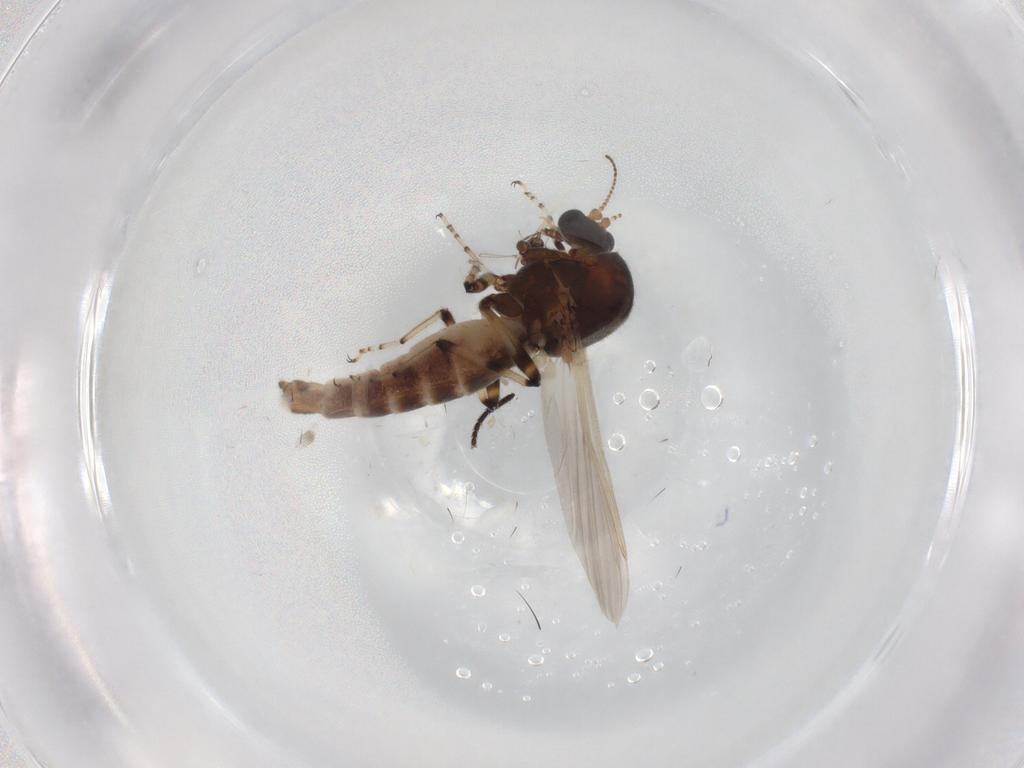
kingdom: Animalia
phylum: Arthropoda
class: Insecta
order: Diptera
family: Ceratopogonidae
